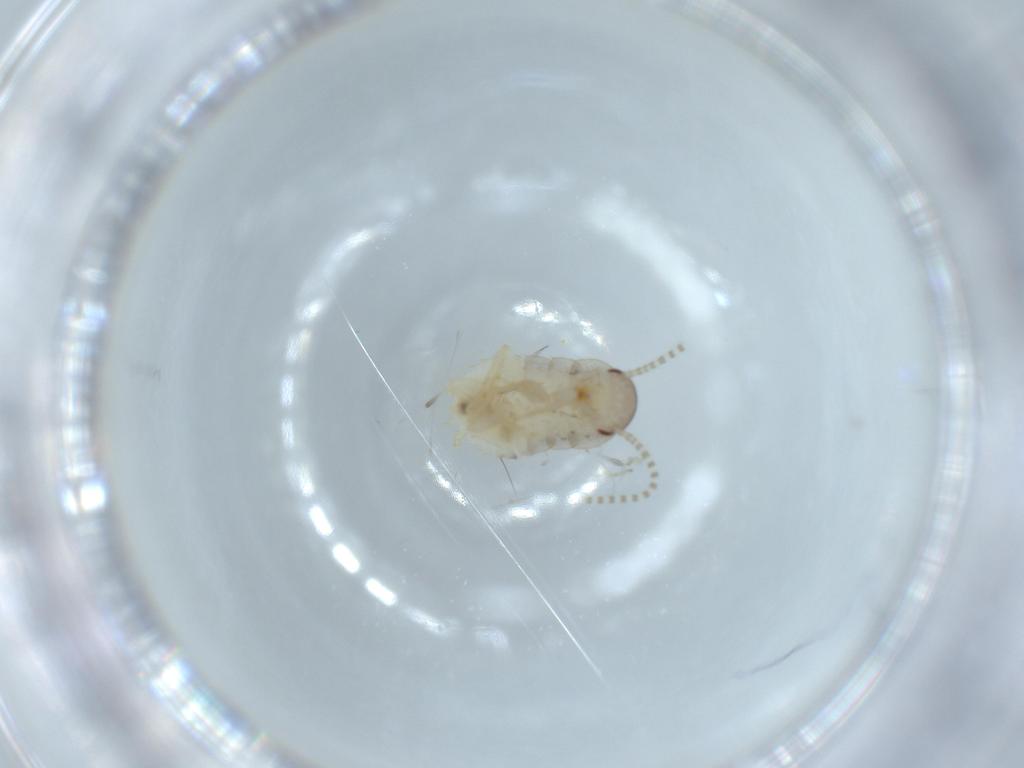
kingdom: Animalia
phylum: Arthropoda
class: Insecta
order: Blattodea
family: Ectobiidae
